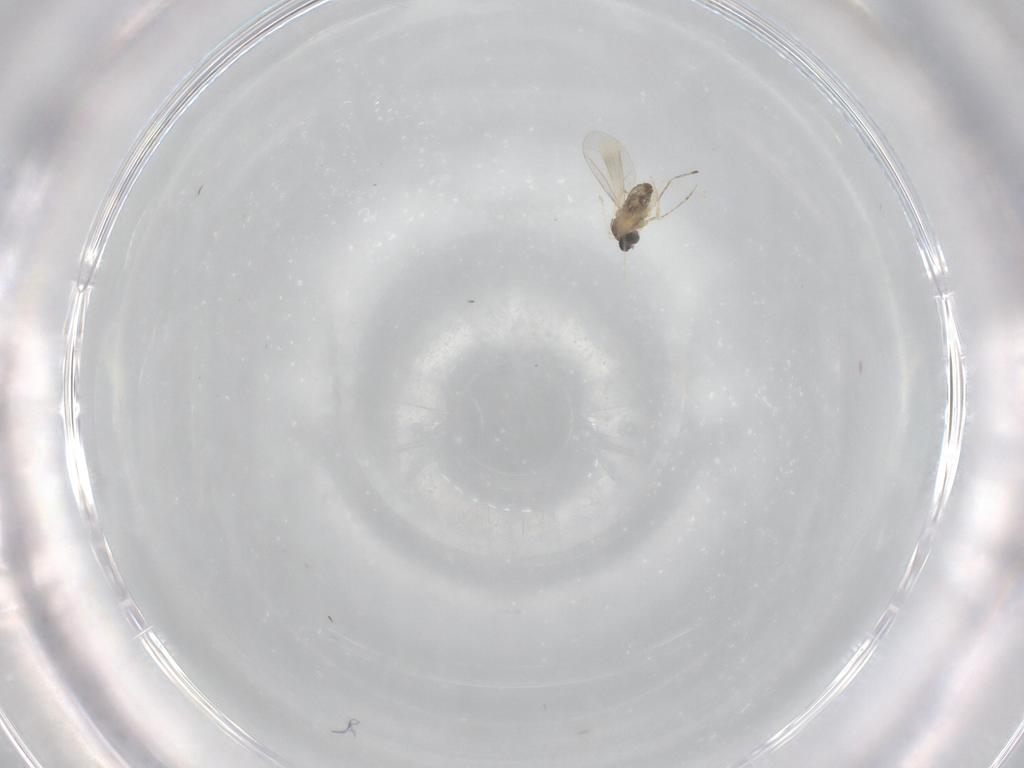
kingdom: Animalia
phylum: Arthropoda
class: Insecta
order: Diptera
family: Cecidomyiidae
